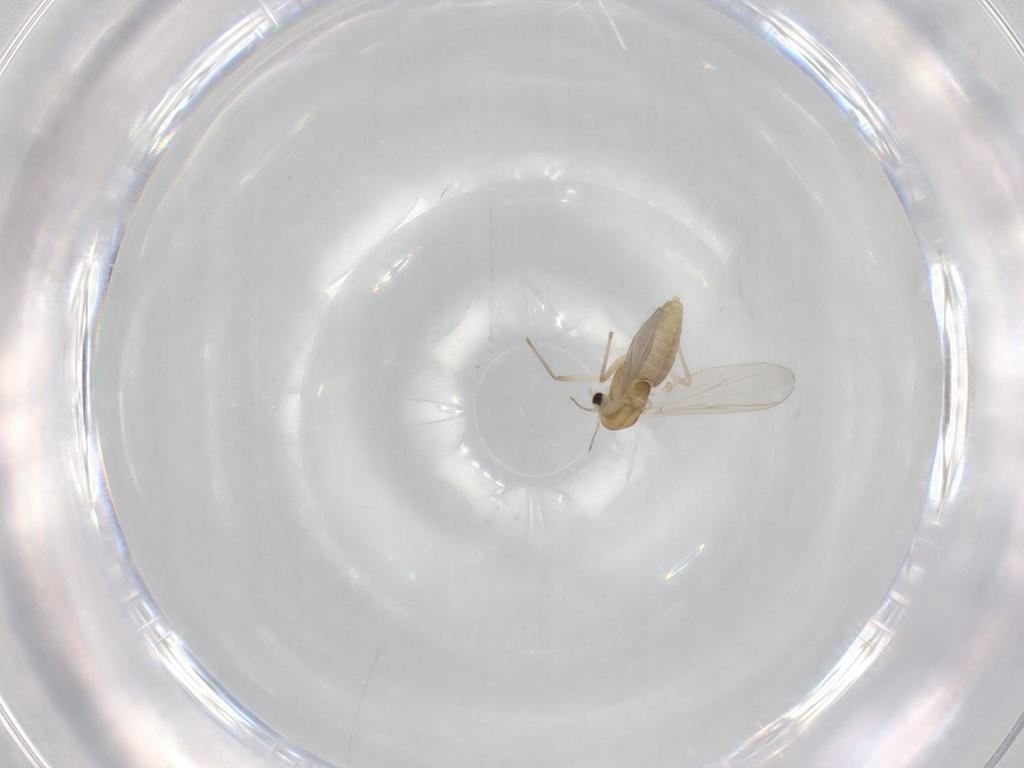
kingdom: Animalia
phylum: Arthropoda
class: Insecta
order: Diptera
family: Chironomidae
